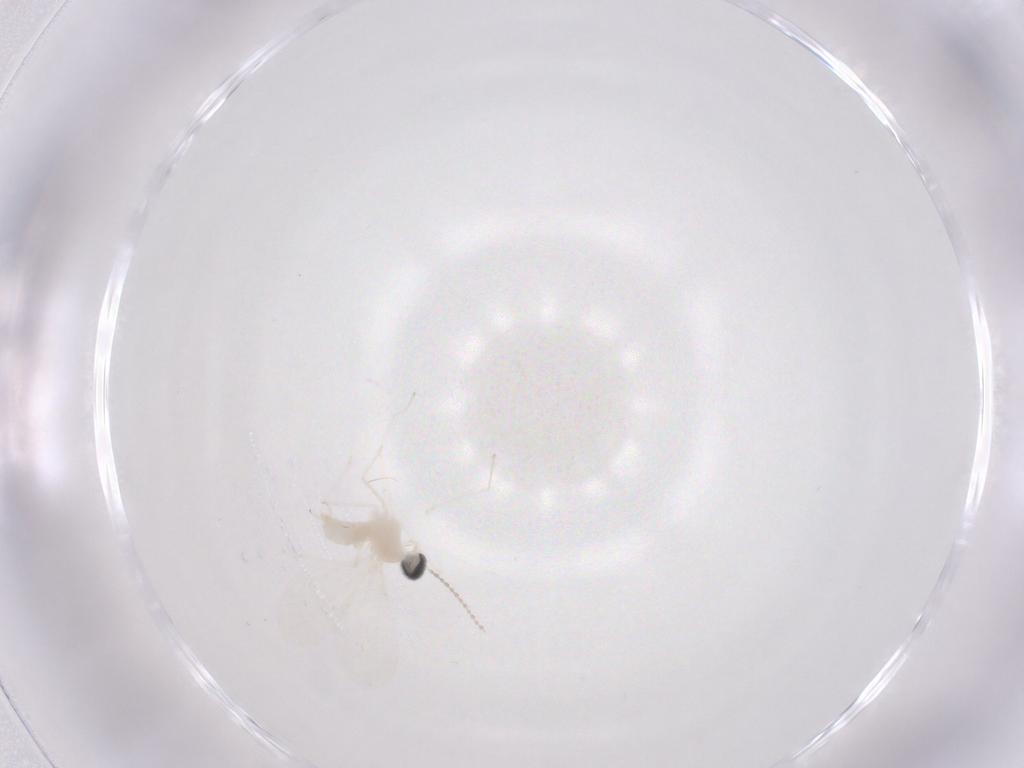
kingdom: Animalia
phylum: Arthropoda
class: Insecta
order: Diptera
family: Cecidomyiidae
